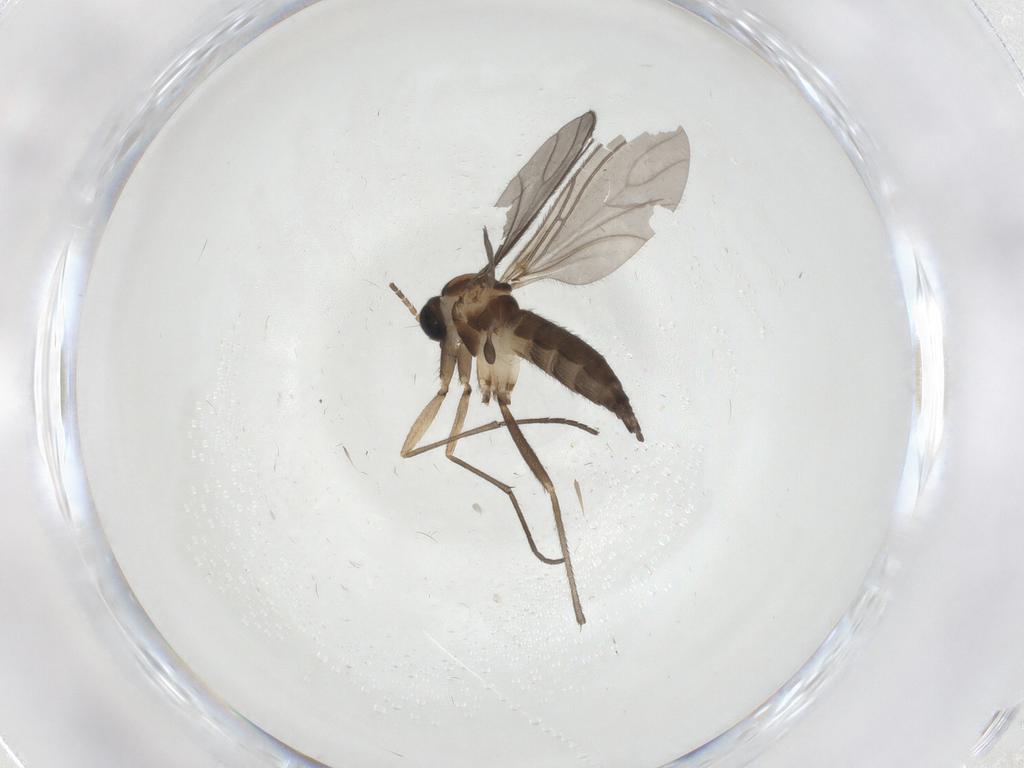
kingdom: Animalia
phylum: Arthropoda
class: Insecta
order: Diptera
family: Sciaridae
